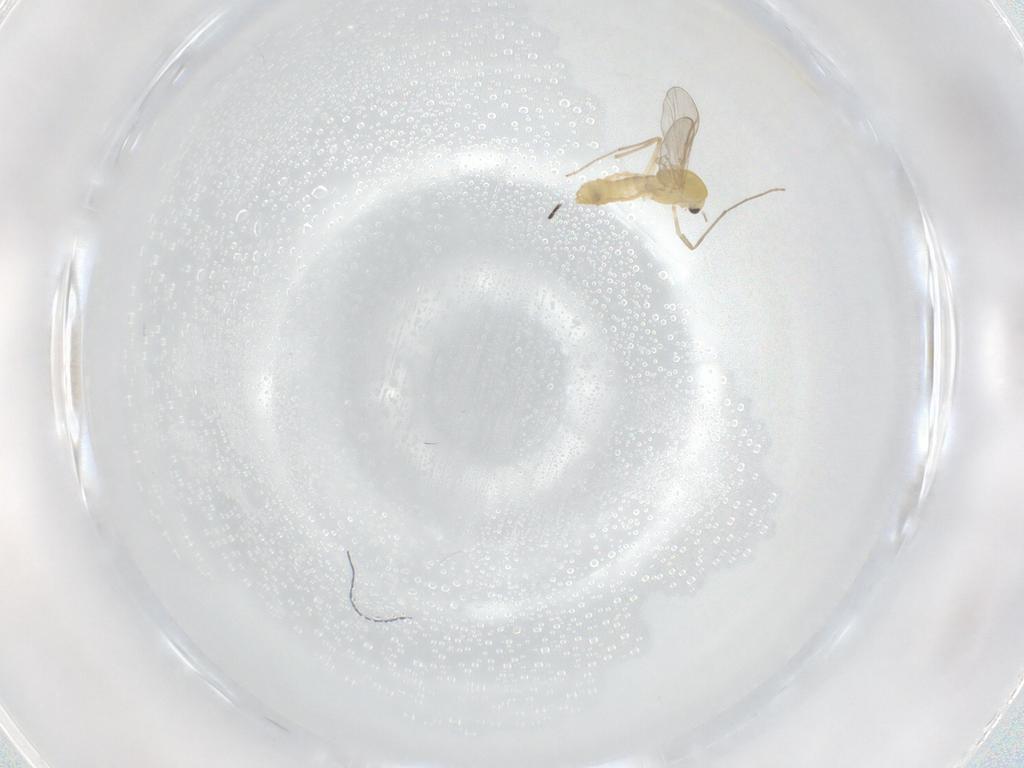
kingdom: Animalia
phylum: Arthropoda
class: Insecta
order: Diptera
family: Chironomidae
